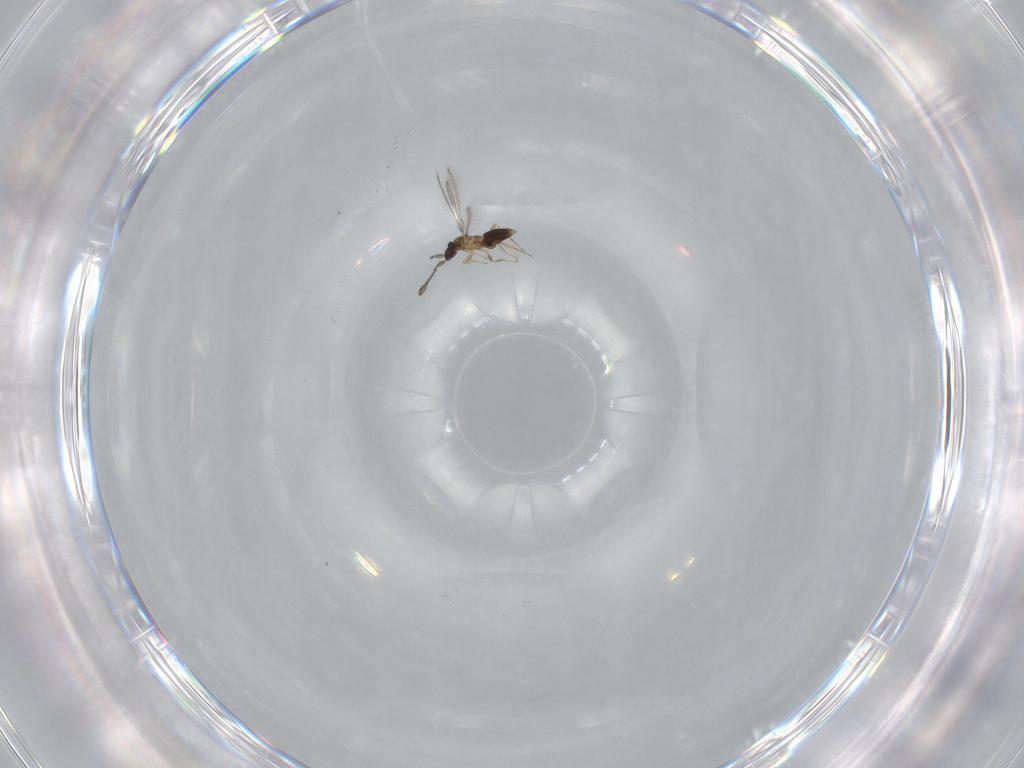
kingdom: Animalia
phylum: Arthropoda
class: Insecta
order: Hymenoptera
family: Mymaridae
